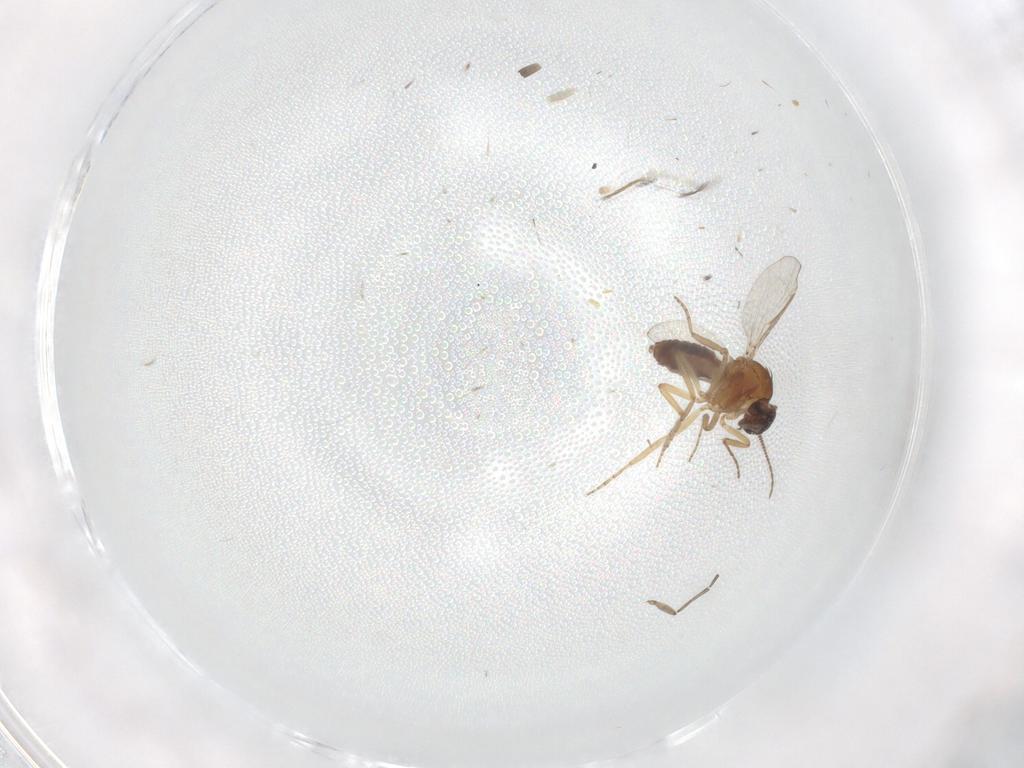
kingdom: Animalia
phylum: Arthropoda
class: Insecta
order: Diptera
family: Chironomidae
